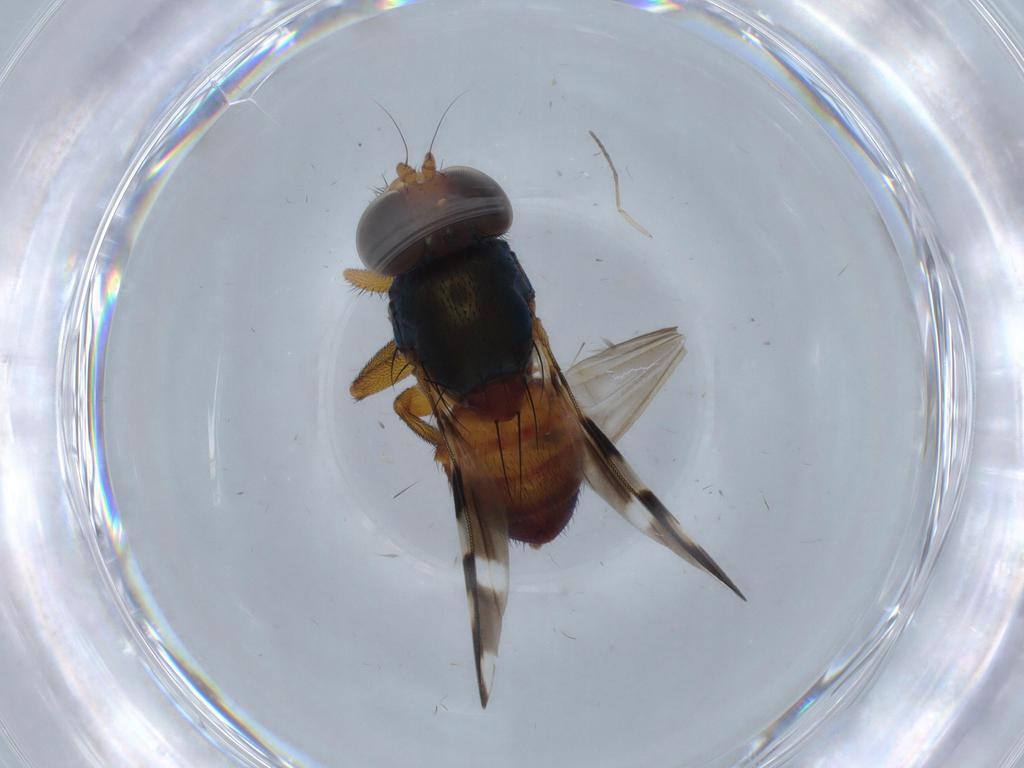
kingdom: Animalia
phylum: Arthropoda
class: Insecta
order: Diptera
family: Ulidiidae
